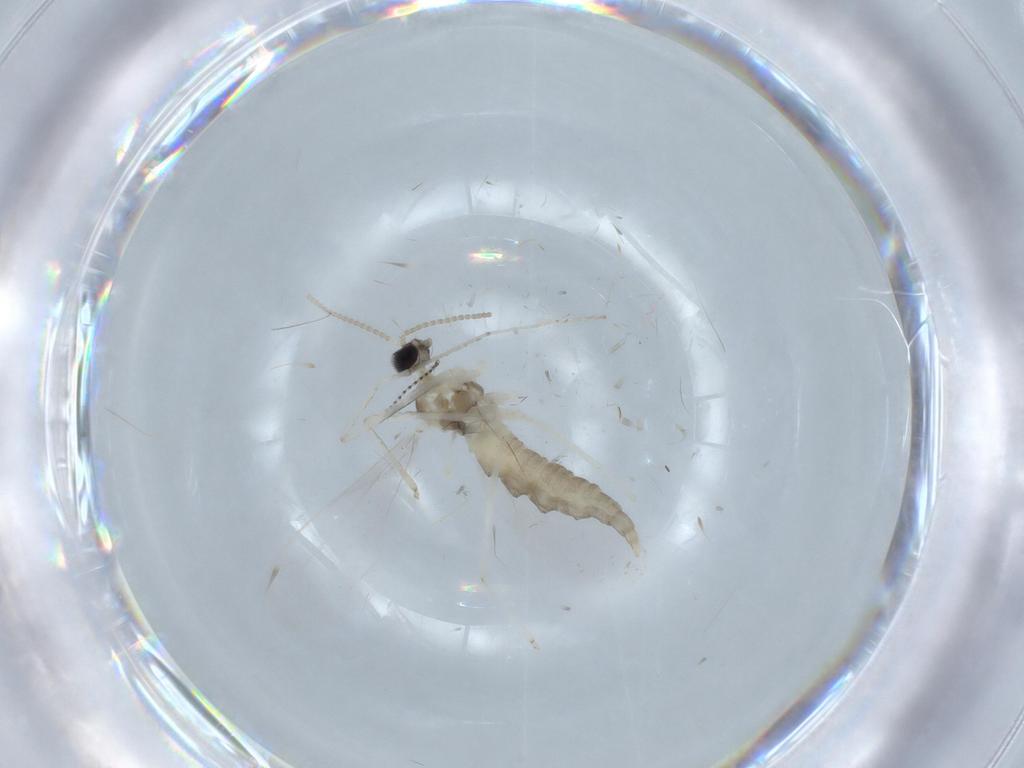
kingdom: Animalia
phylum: Arthropoda
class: Insecta
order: Diptera
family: Cecidomyiidae
